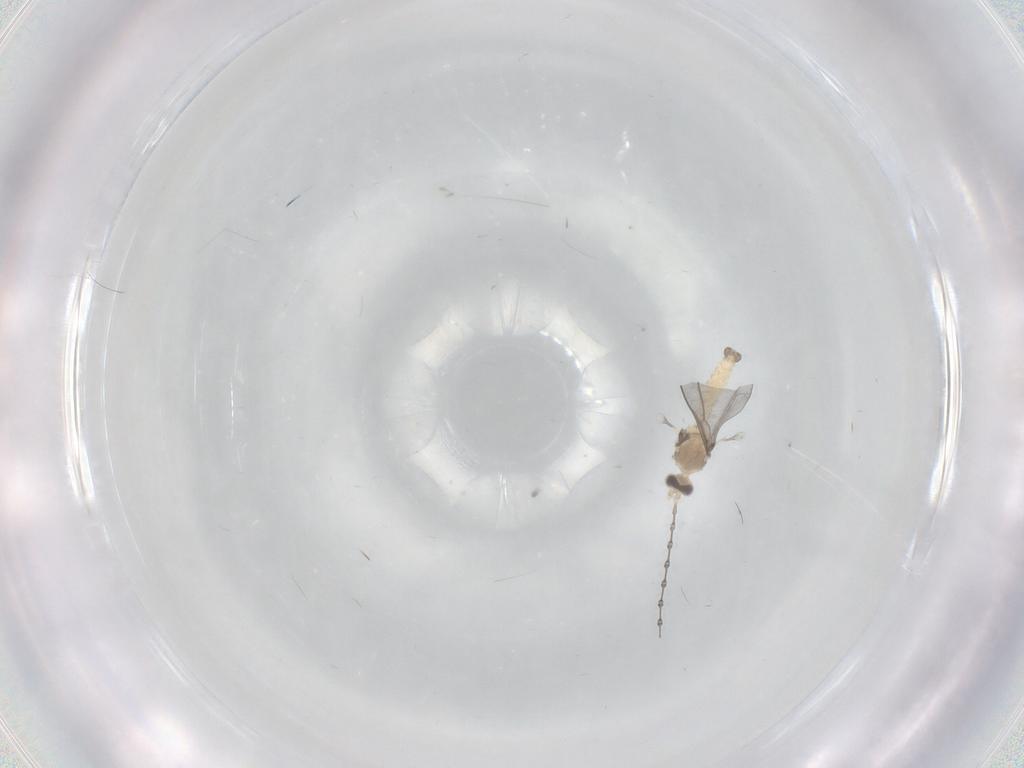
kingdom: Animalia
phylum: Arthropoda
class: Insecta
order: Diptera
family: Cecidomyiidae
